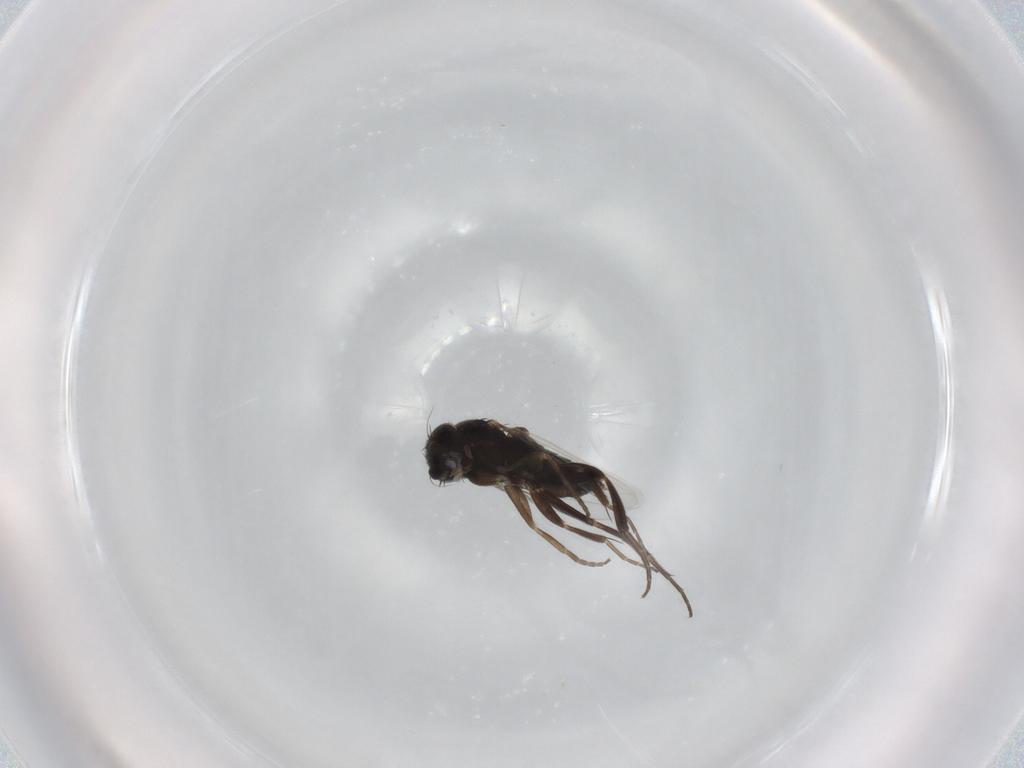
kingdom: Animalia
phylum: Arthropoda
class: Insecta
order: Diptera
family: Phoridae
